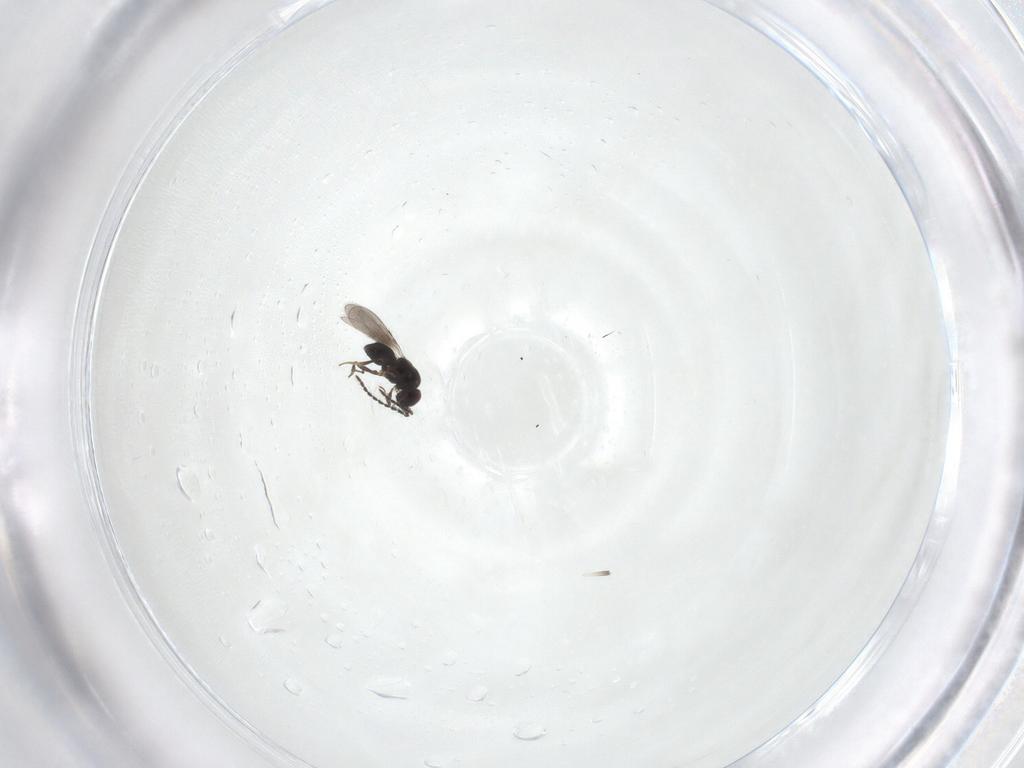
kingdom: Animalia
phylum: Arthropoda
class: Insecta
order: Hymenoptera
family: Ceraphronidae
